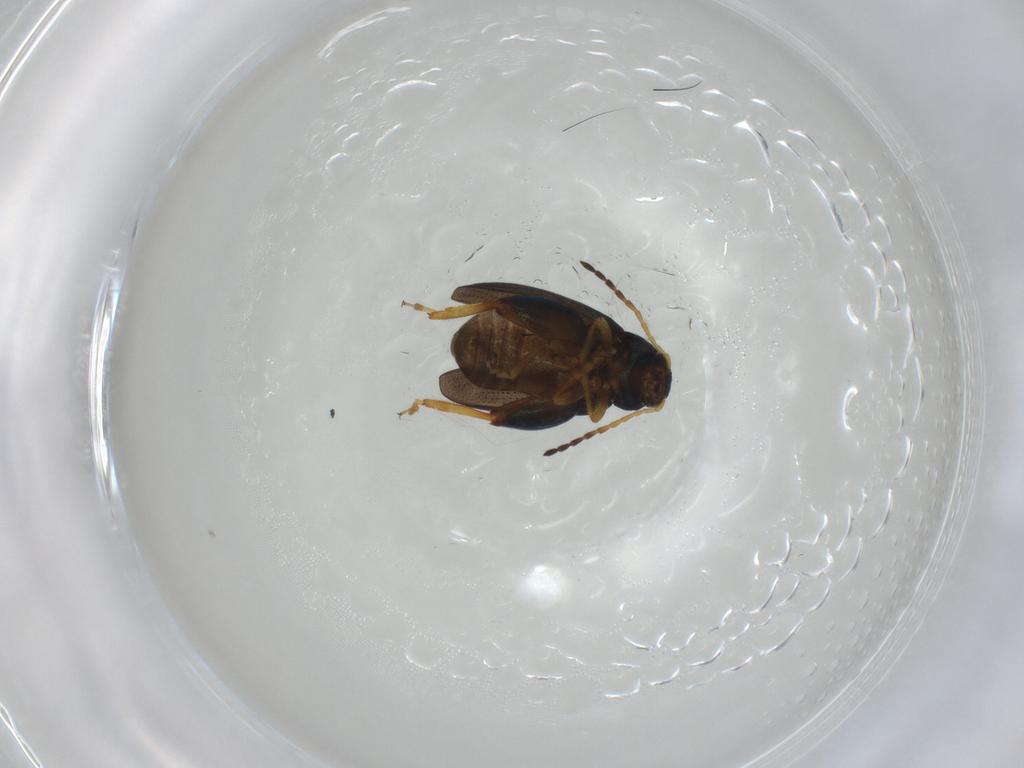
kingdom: Animalia
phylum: Arthropoda
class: Insecta
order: Coleoptera
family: Chrysomelidae
